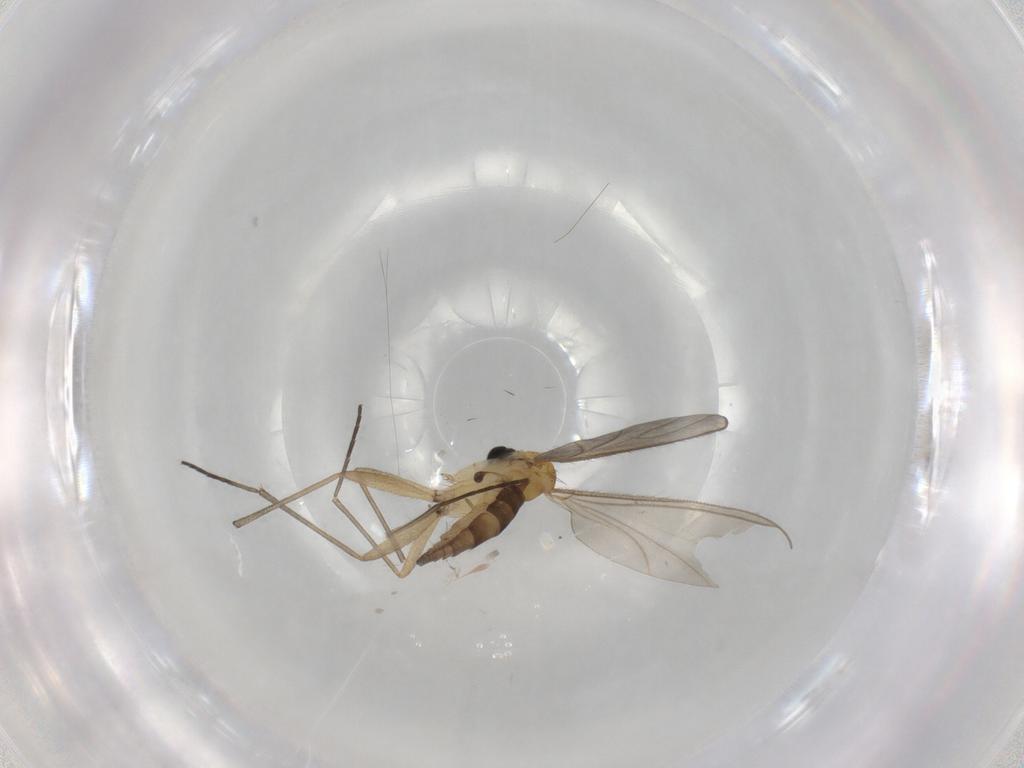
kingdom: Animalia
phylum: Arthropoda
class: Insecta
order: Diptera
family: Sciaridae
